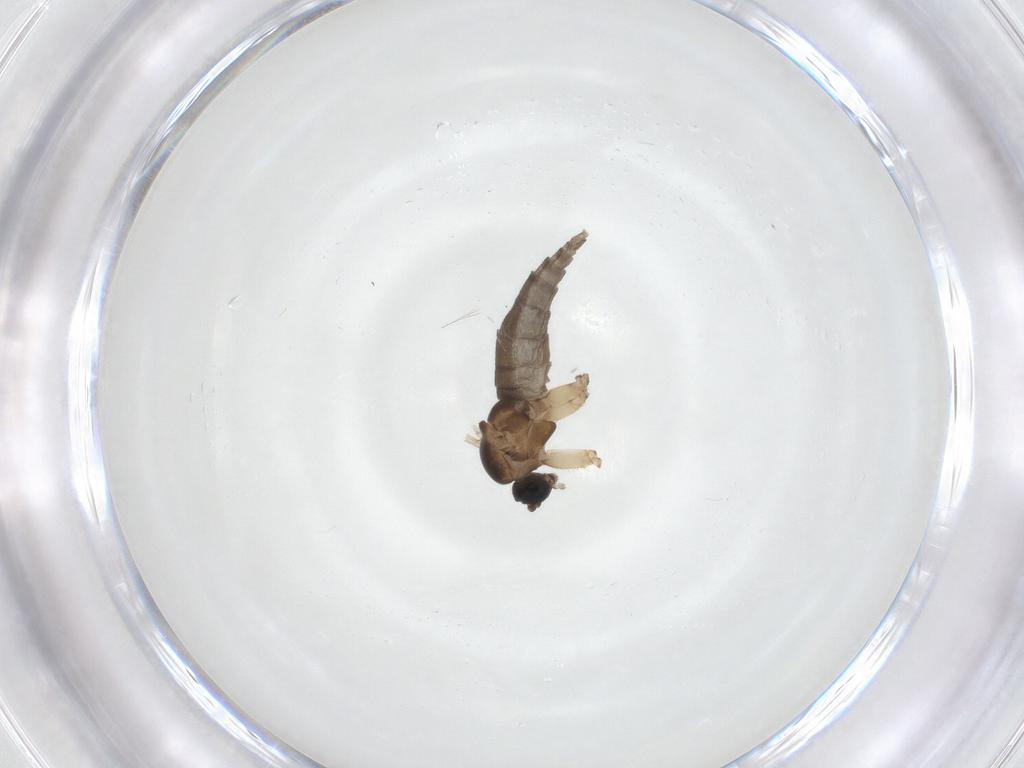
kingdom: Animalia
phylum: Arthropoda
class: Insecta
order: Diptera
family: Sciaridae
